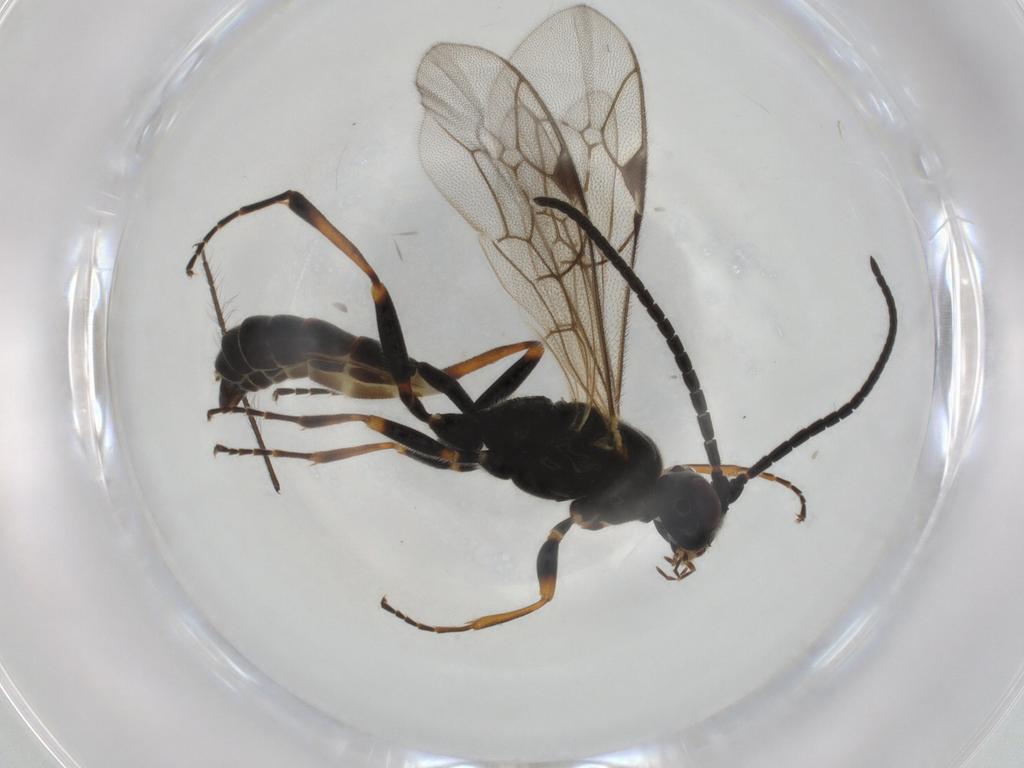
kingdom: Animalia
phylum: Arthropoda
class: Insecta
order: Hymenoptera
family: Ichneumonidae
